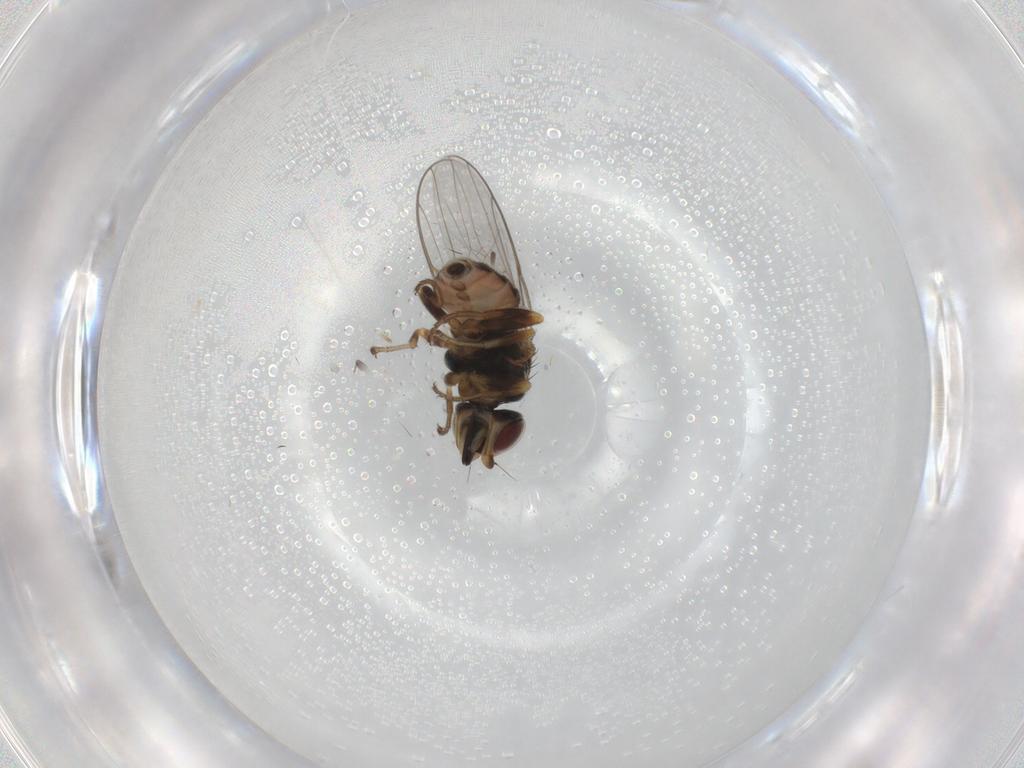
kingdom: Animalia
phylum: Arthropoda
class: Insecta
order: Diptera
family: Chloropidae
